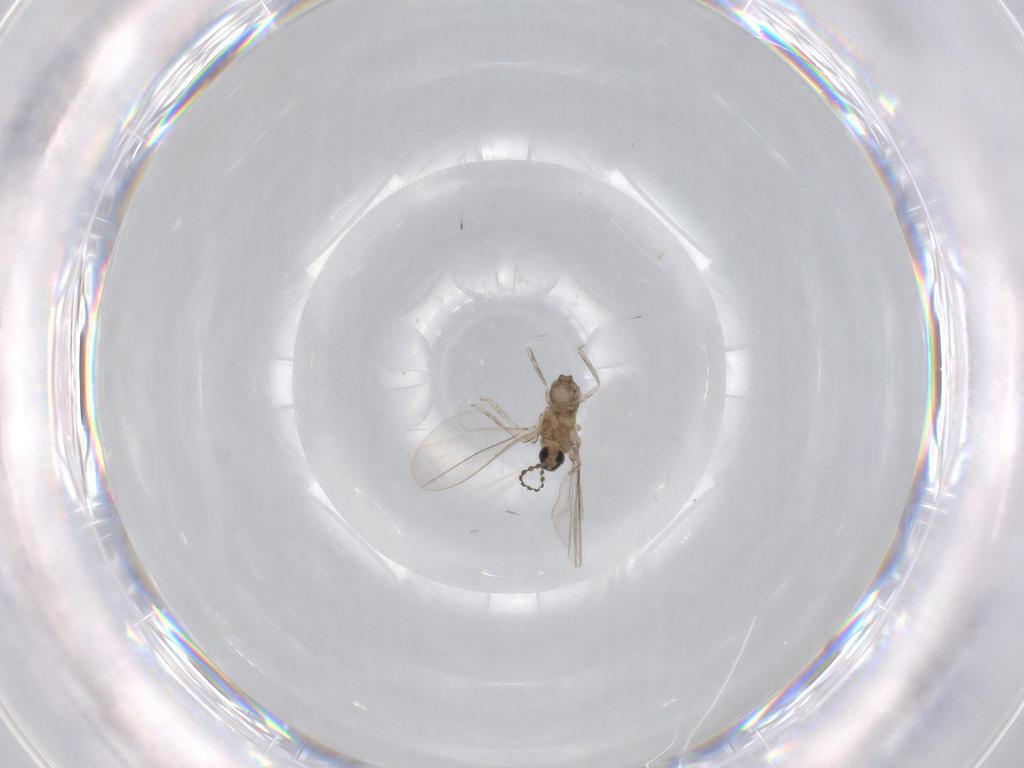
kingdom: Animalia
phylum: Arthropoda
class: Insecta
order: Diptera
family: Cecidomyiidae
